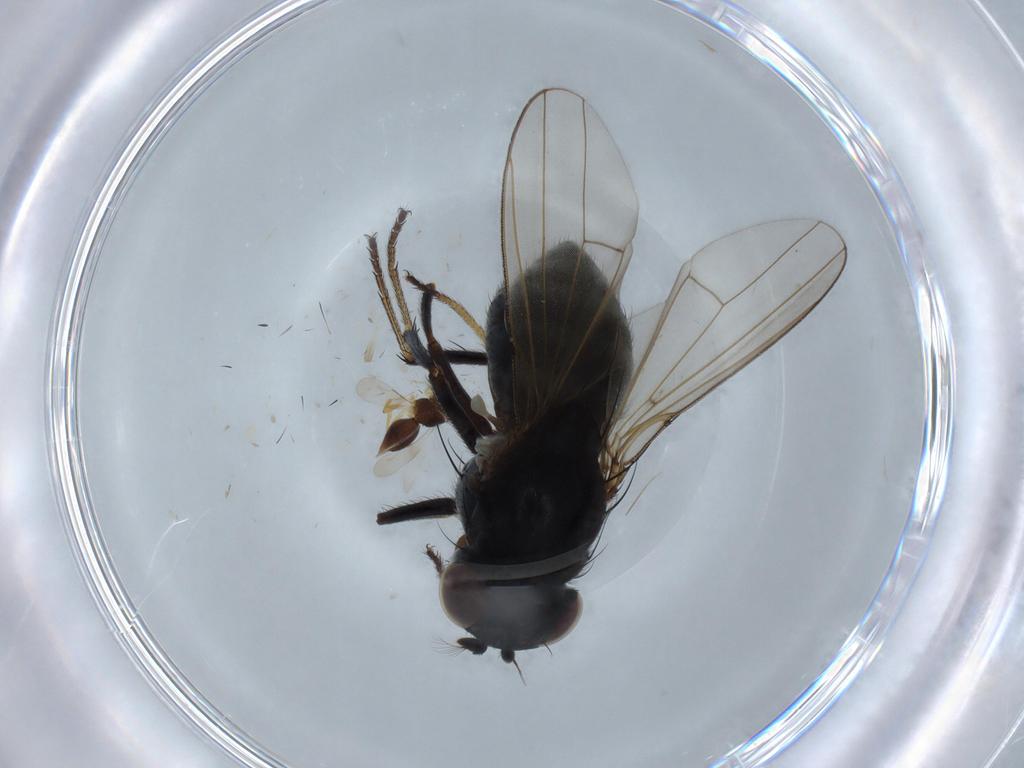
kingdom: Animalia
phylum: Arthropoda
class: Insecta
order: Diptera
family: Ephydridae
